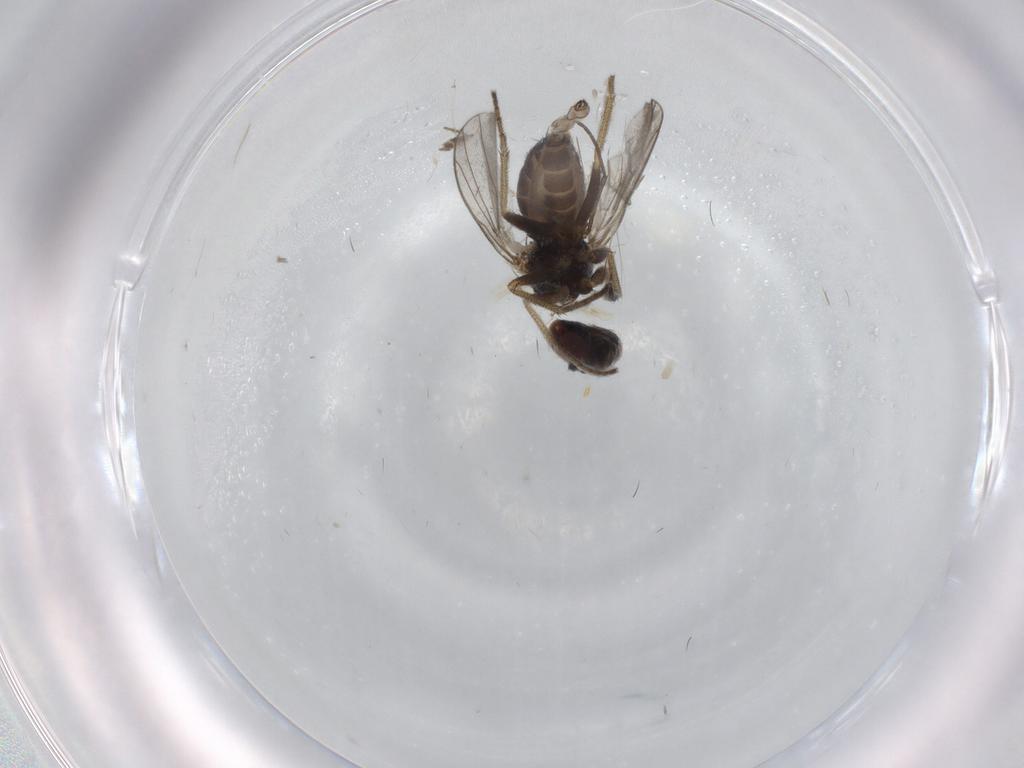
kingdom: Animalia
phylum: Arthropoda
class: Insecta
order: Diptera
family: Cecidomyiidae
